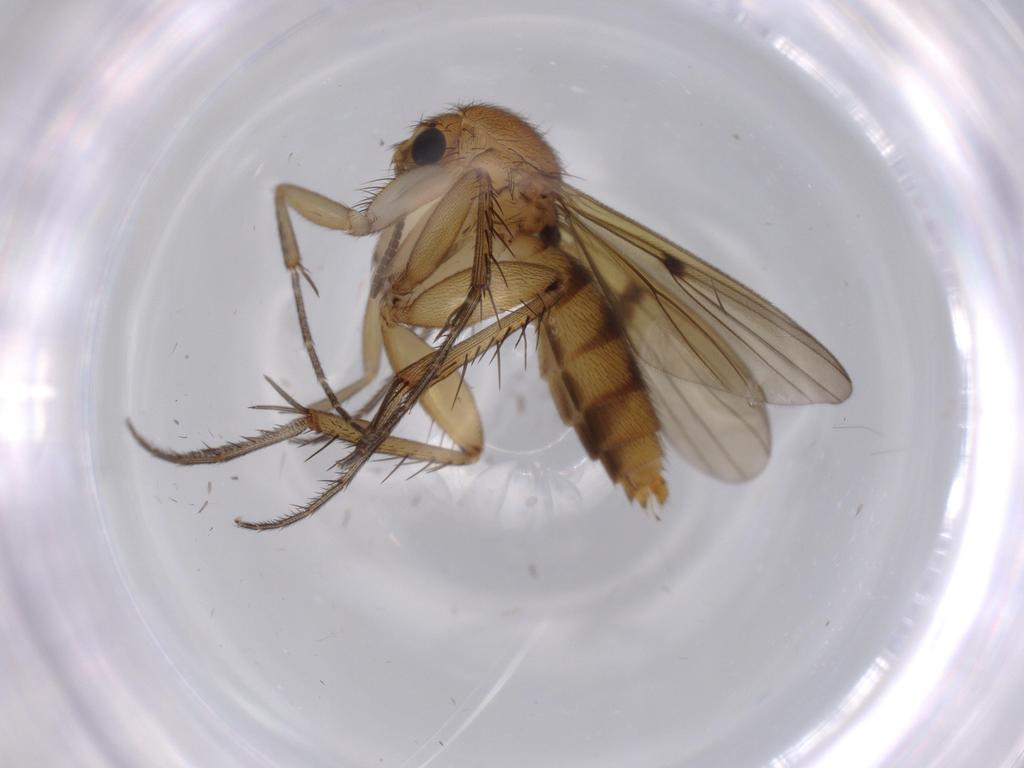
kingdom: Animalia
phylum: Arthropoda
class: Insecta
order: Diptera
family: Ceratopogonidae
